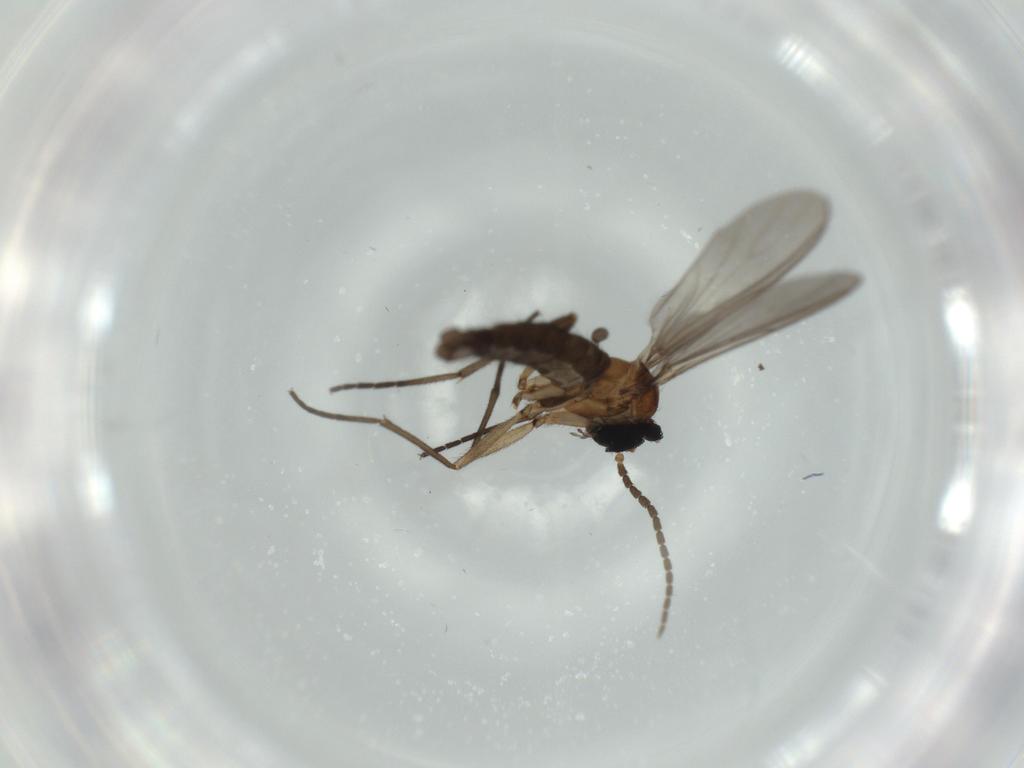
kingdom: Animalia
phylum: Arthropoda
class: Insecta
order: Diptera
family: Sciaridae
